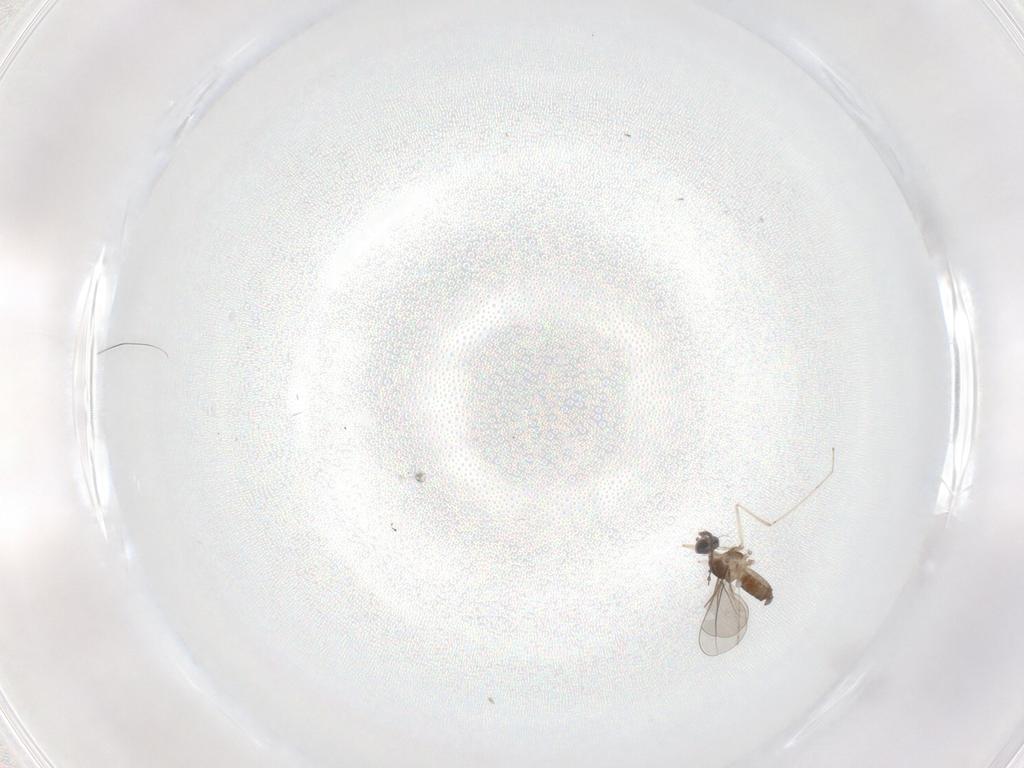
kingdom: Animalia
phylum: Arthropoda
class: Insecta
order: Diptera
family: Cecidomyiidae
